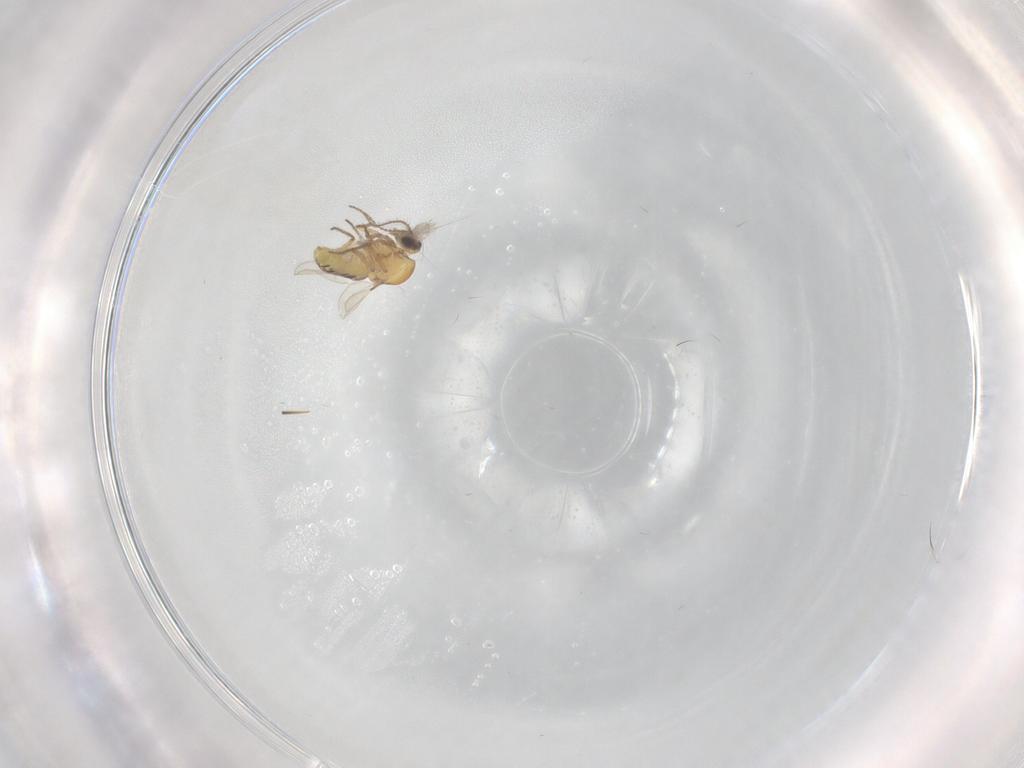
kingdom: Animalia
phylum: Arthropoda
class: Insecta
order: Diptera
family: Ceratopogonidae
